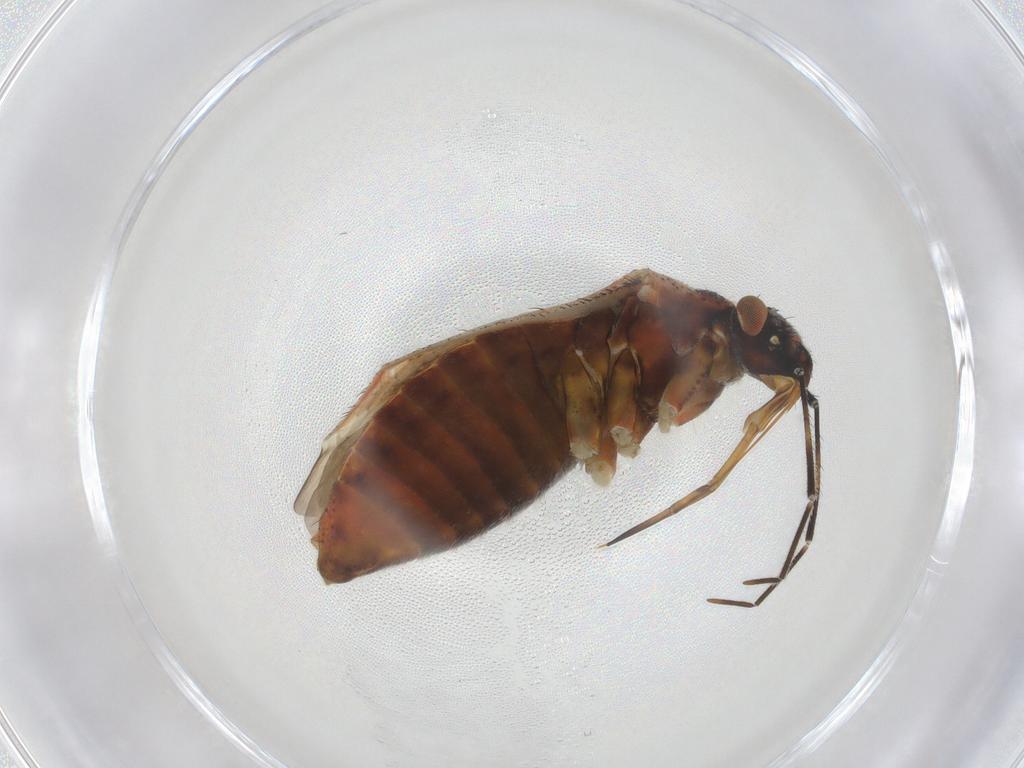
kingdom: Animalia
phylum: Arthropoda
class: Insecta
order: Hemiptera
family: Miridae
